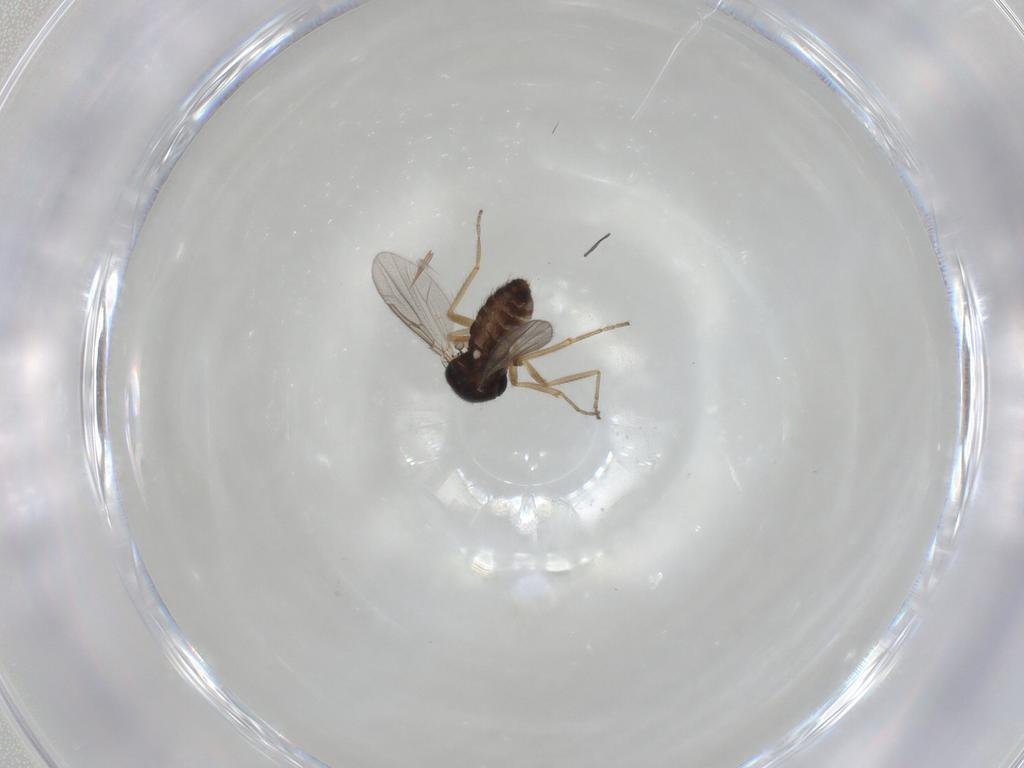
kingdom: Animalia
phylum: Arthropoda
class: Insecta
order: Diptera
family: Ceratopogonidae
